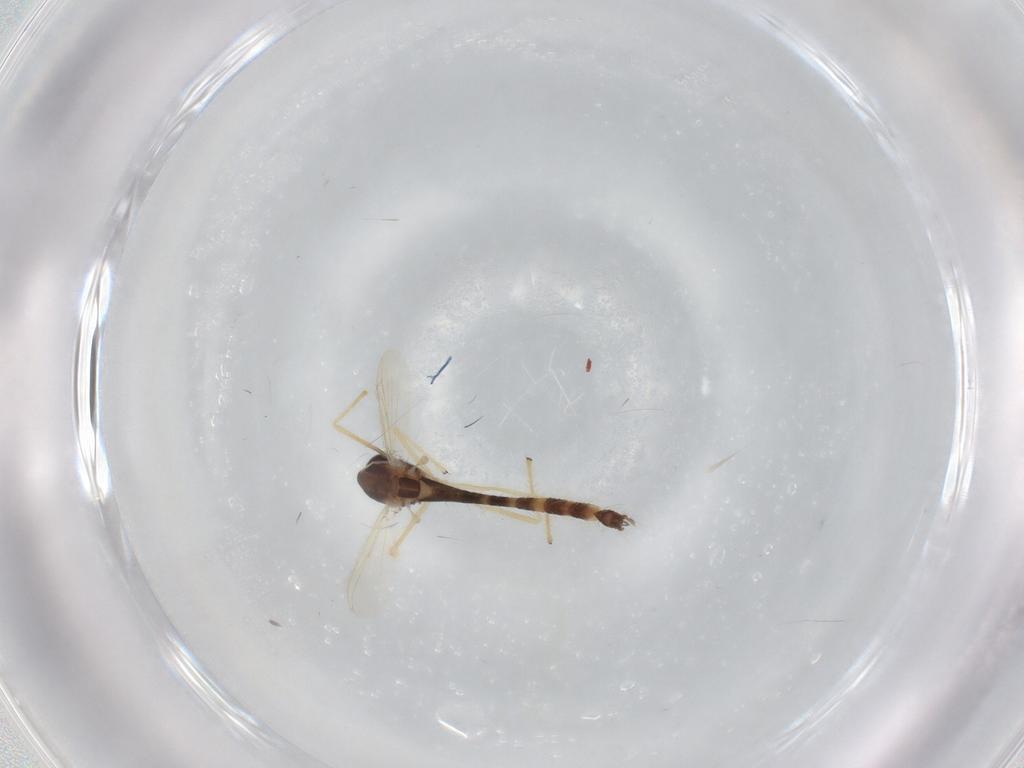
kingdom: Animalia
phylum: Arthropoda
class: Insecta
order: Diptera
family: Chironomidae
